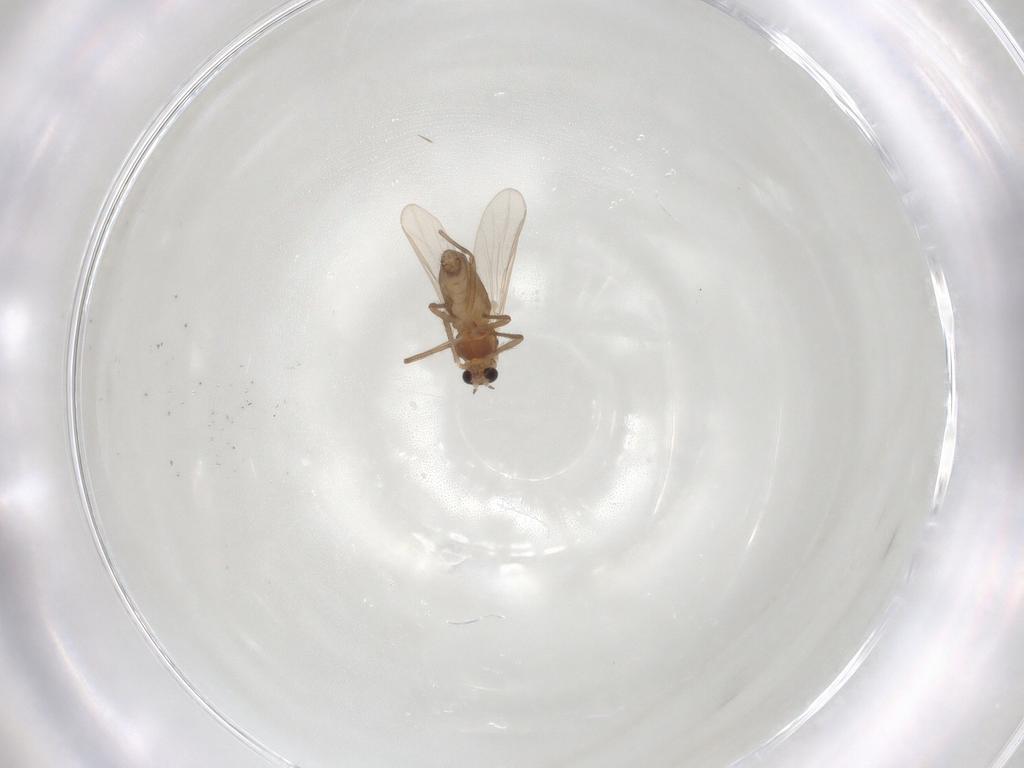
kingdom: Animalia
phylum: Arthropoda
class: Insecta
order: Diptera
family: Chironomidae
